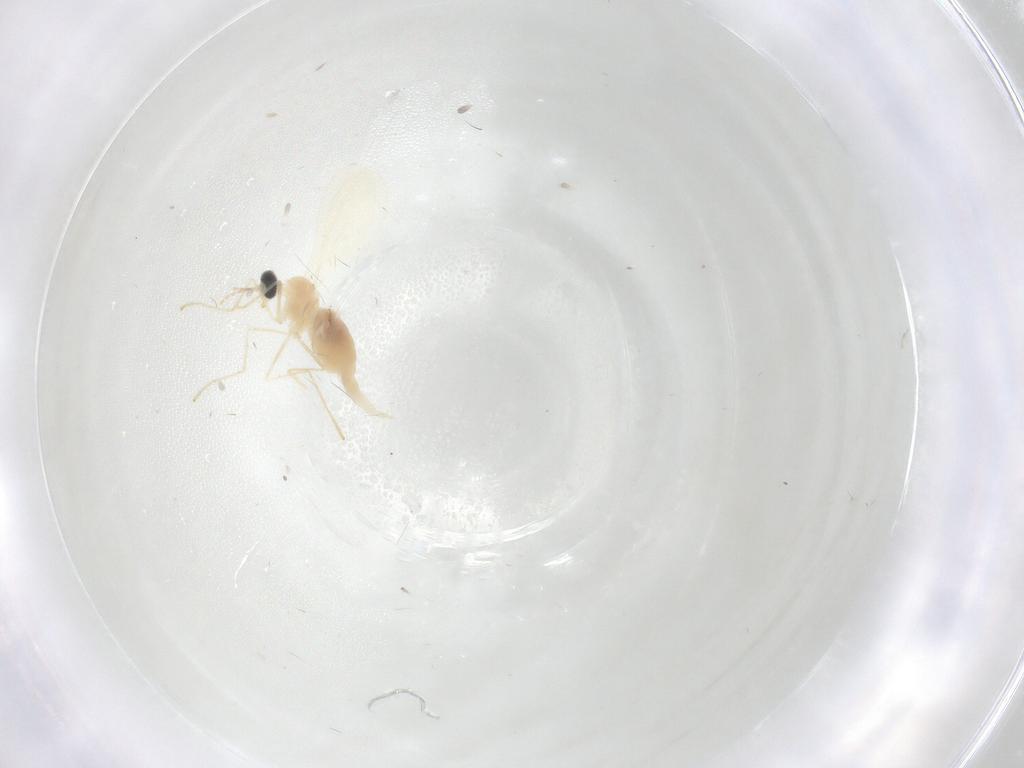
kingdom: Animalia
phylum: Arthropoda
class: Insecta
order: Diptera
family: Cecidomyiidae
